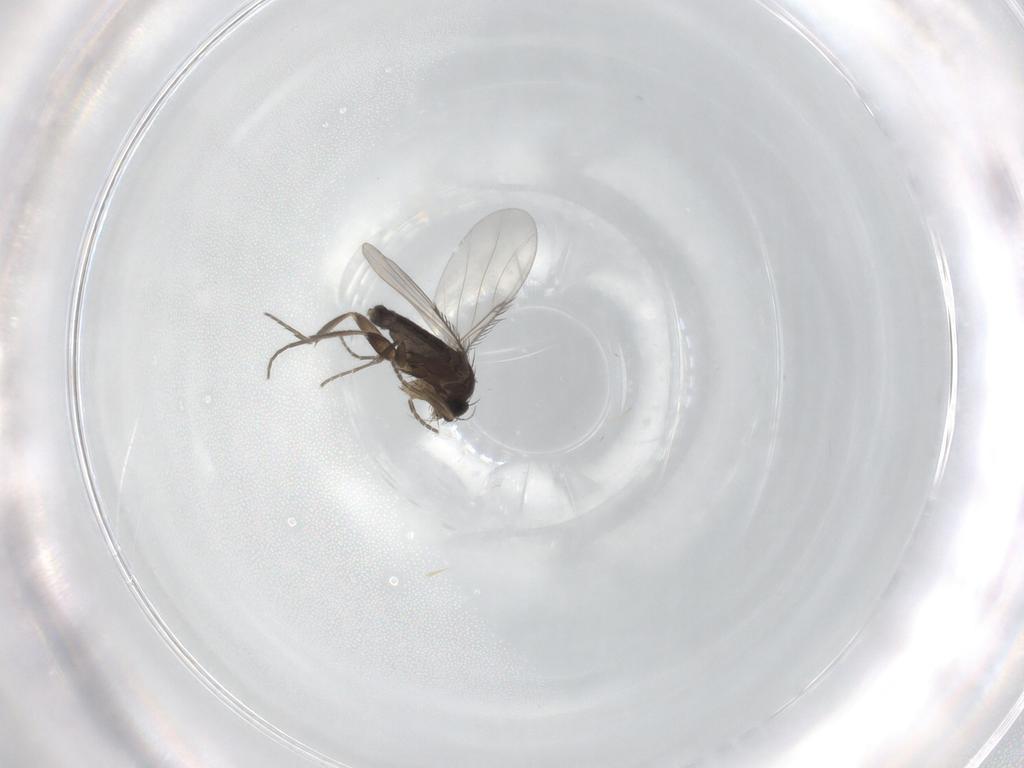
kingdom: Animalia
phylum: Arthropoda
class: Insecta
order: Diptera
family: Phoridae
